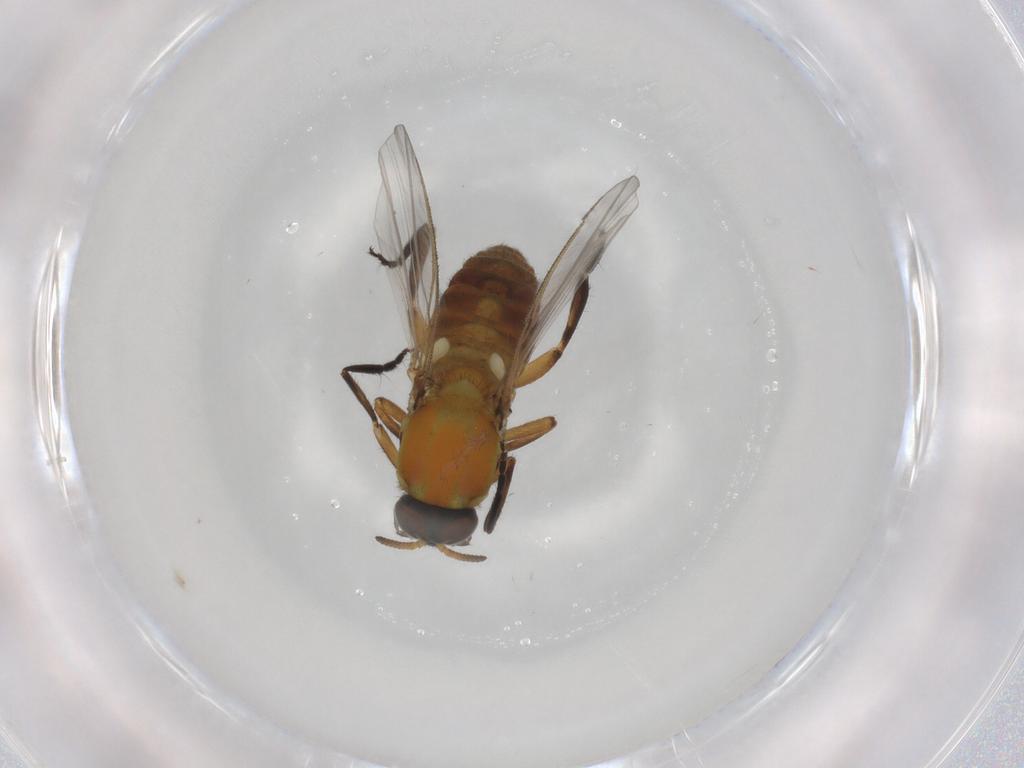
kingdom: Animalia
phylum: Arthropoda
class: Insecta
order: Diptera
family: Simuliidae
